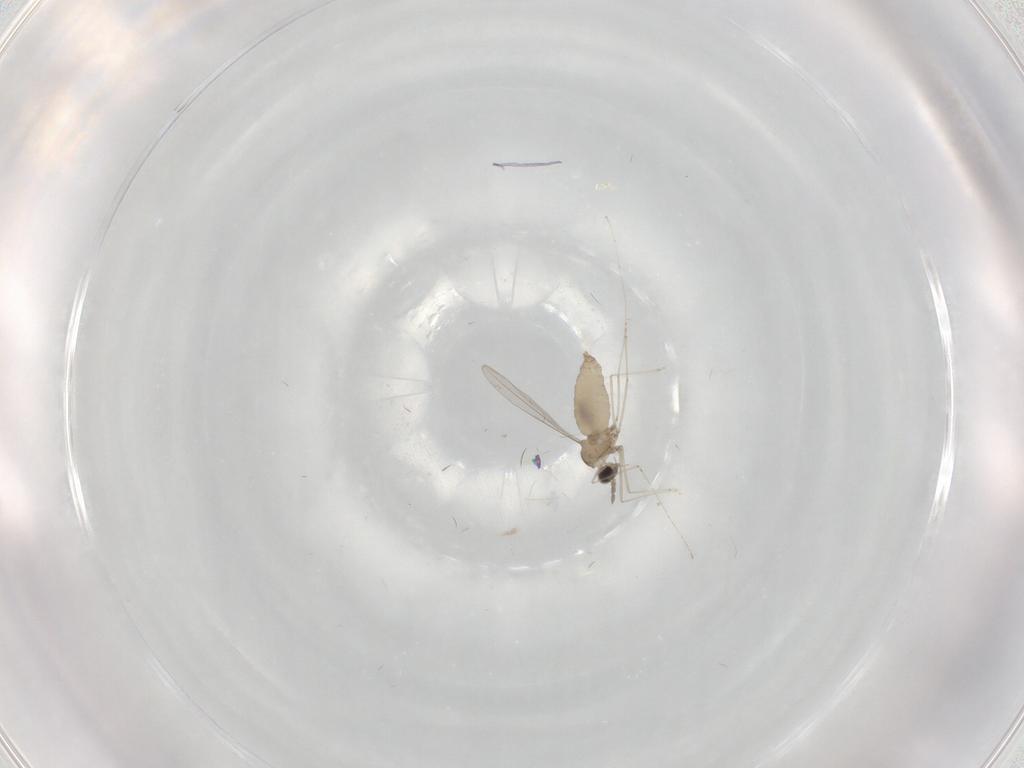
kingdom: Animalia
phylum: Arthropoda
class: Insecta
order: Diptera
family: Cecidomyiidae
